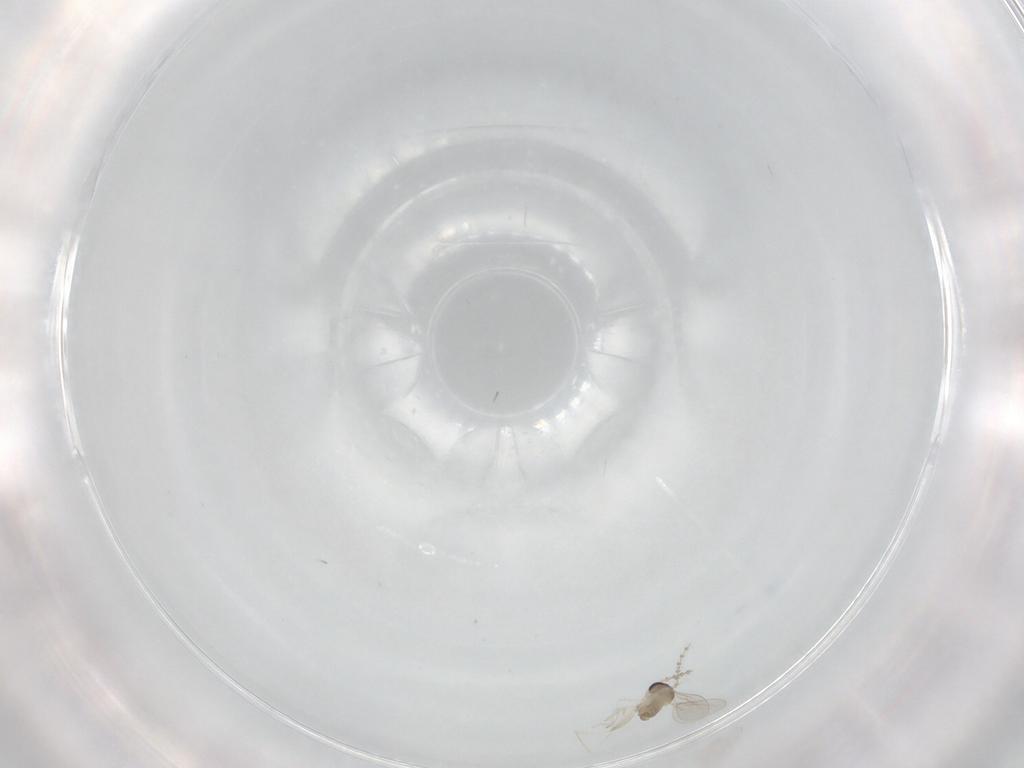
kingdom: Animalia
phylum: Arthropoda
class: Insecta
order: Diptera
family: Cecidomyiidae
